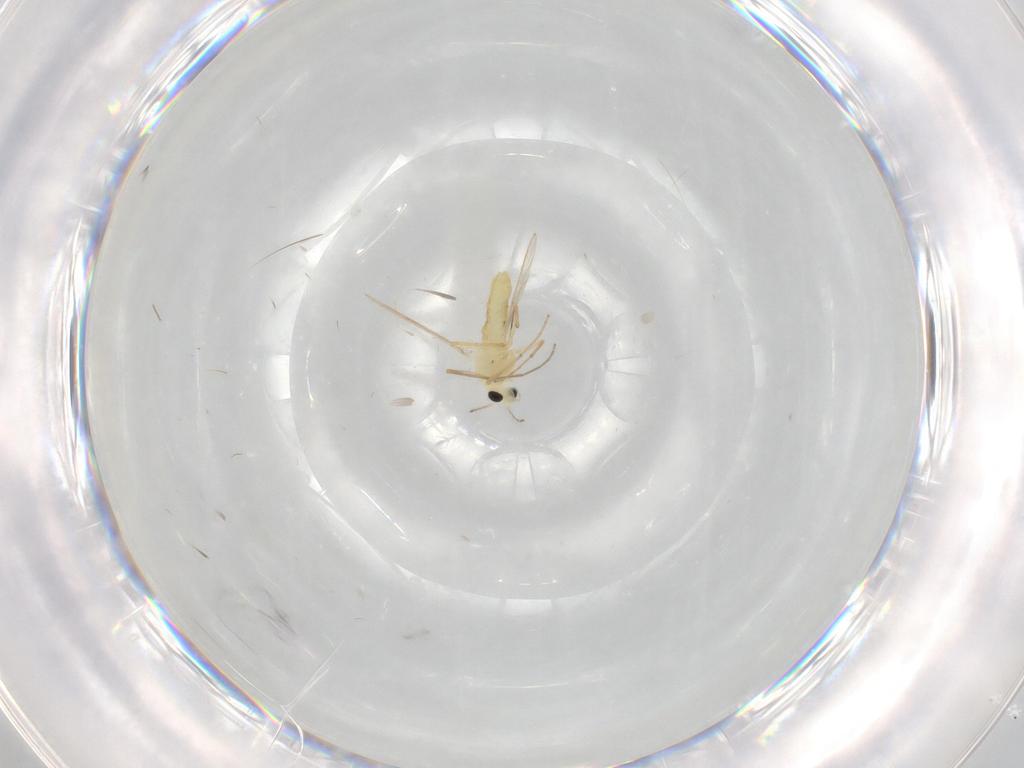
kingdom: Animalia
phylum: Arthropoda
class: Insecta
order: Diptera
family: Chironomidae
